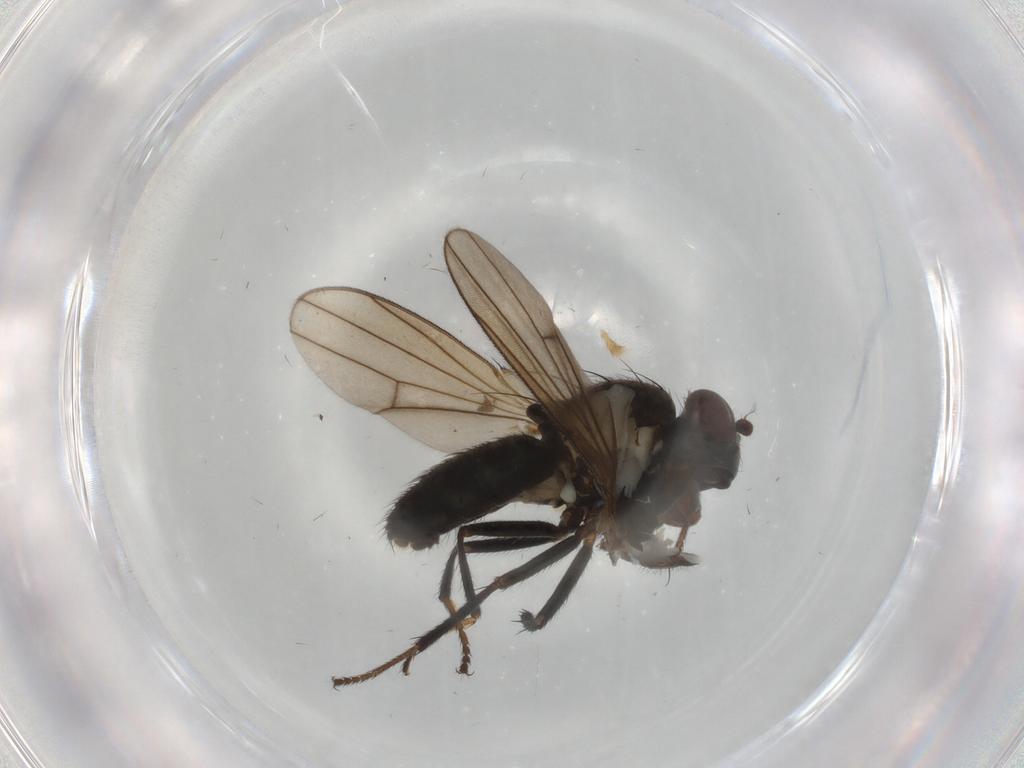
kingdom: Animalia
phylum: Arthropoda
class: Insecta
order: Diptera
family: Ephydridae
